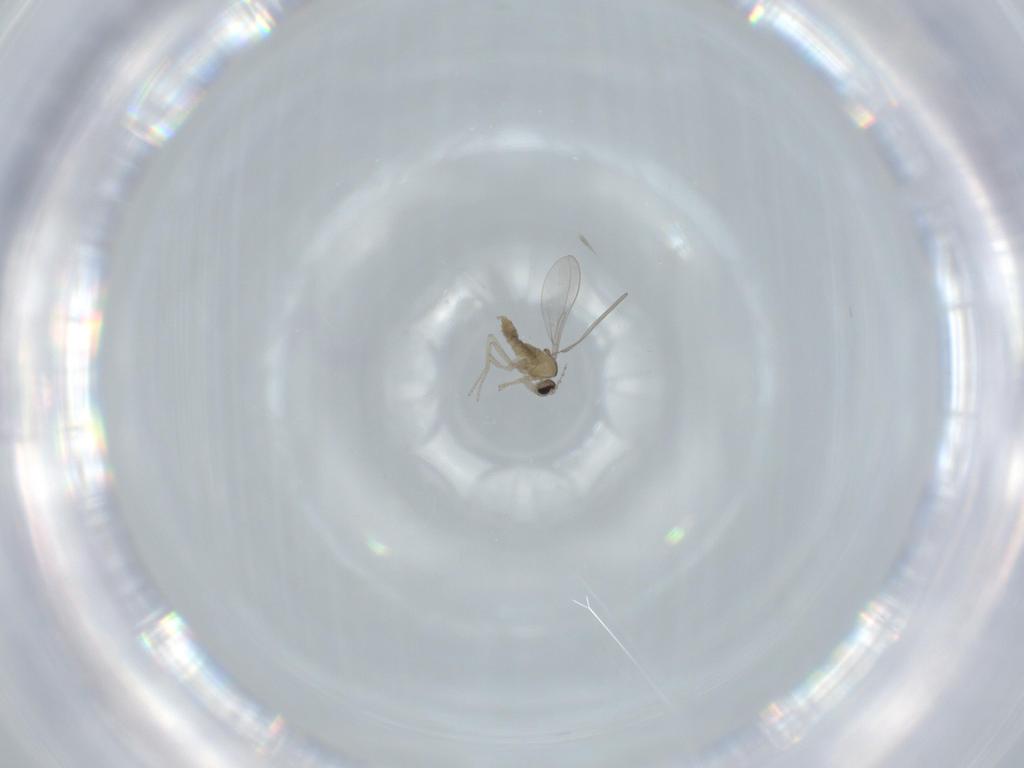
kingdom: Animalia
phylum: Arthropoda
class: Insecta
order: Diptera
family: Cecidomyiidae
